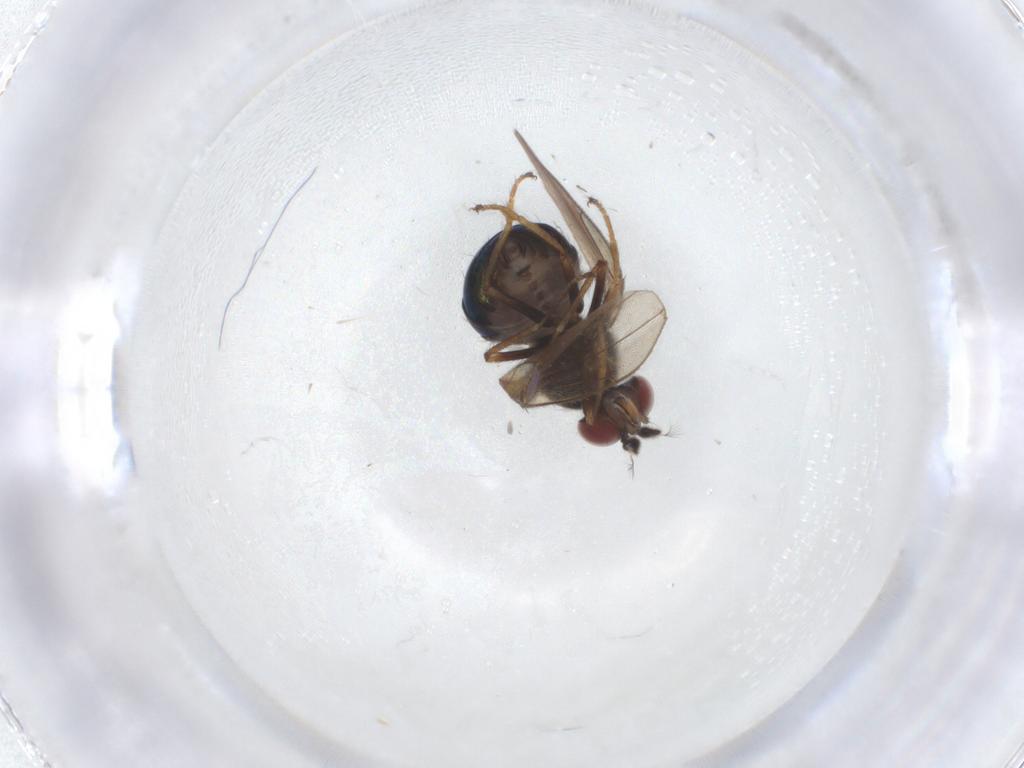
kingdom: Animalia
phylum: Arthropoda
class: Insecta
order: Diptera
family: Ephydridae
